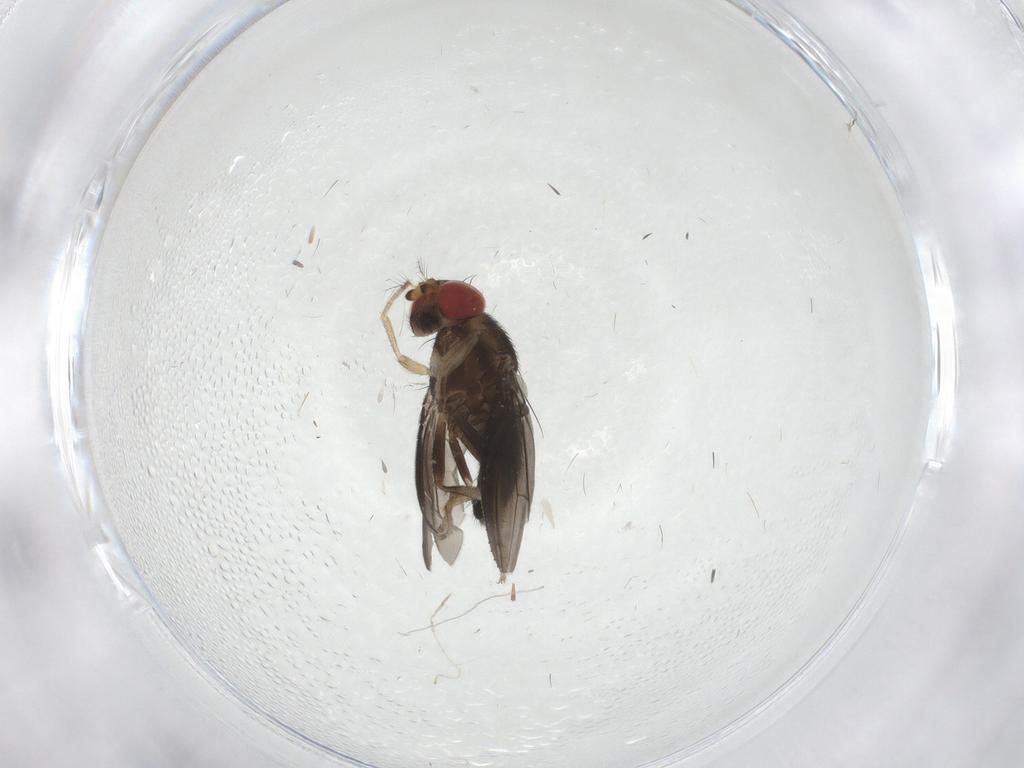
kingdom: Animalia
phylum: Arthropoda
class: Insecta
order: Diptera
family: Drosophilidae
